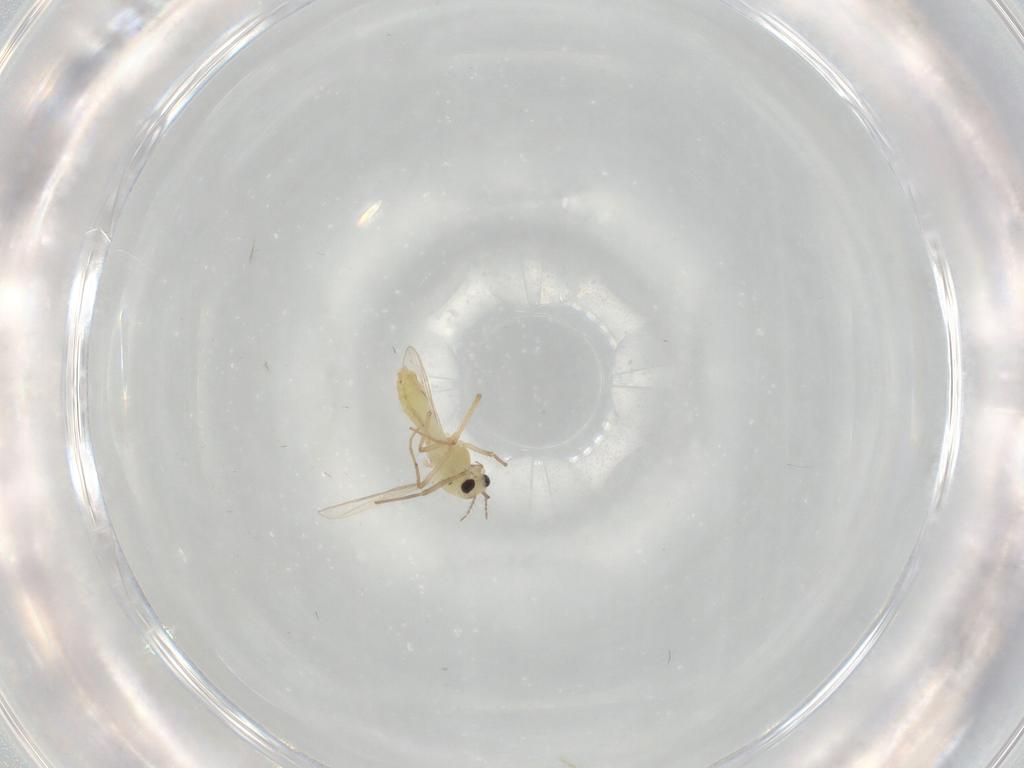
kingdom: Animalia
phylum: Arthropoda
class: Insecta
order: Diptera
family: Chironomidae
